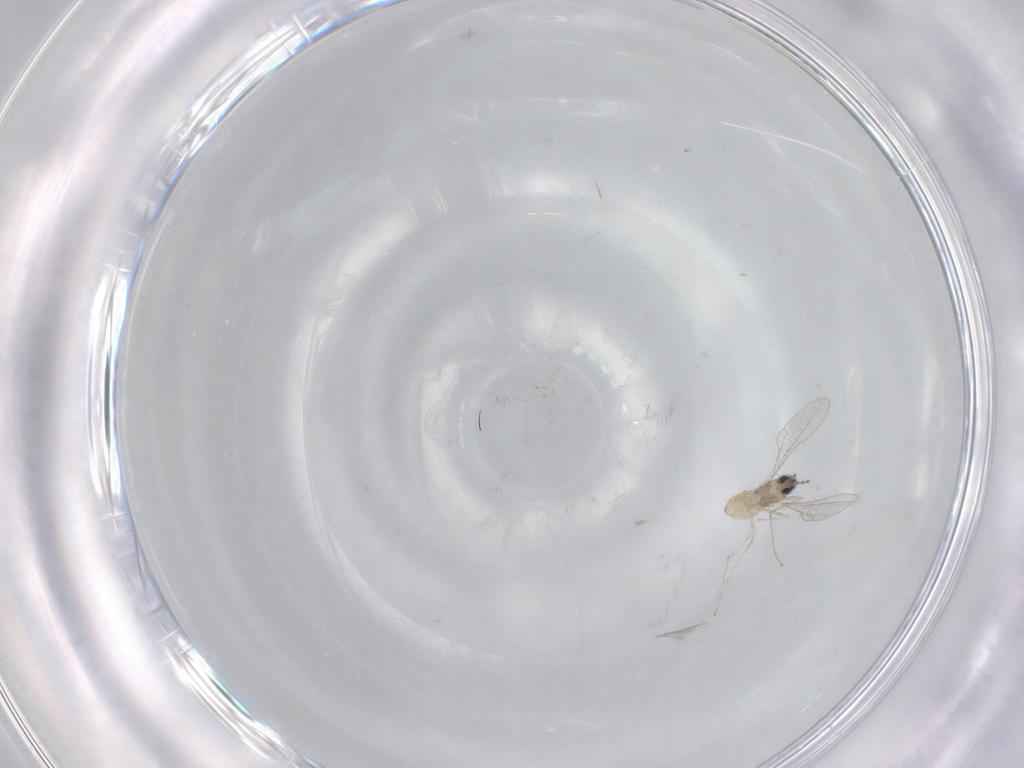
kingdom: Animalia
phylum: Arthropoda
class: Insecta
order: Diptera
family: Cecidomyiidae
